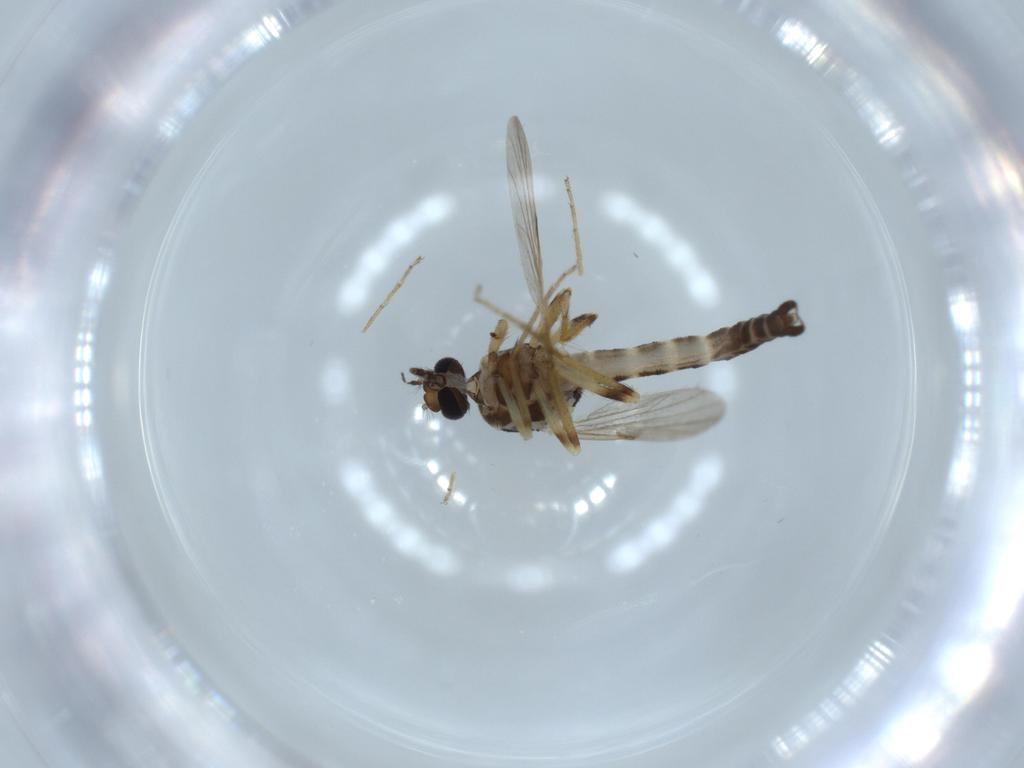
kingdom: Animalia
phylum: Arthropoda
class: Insecta
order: Diptera
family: Ceratopogonidae
